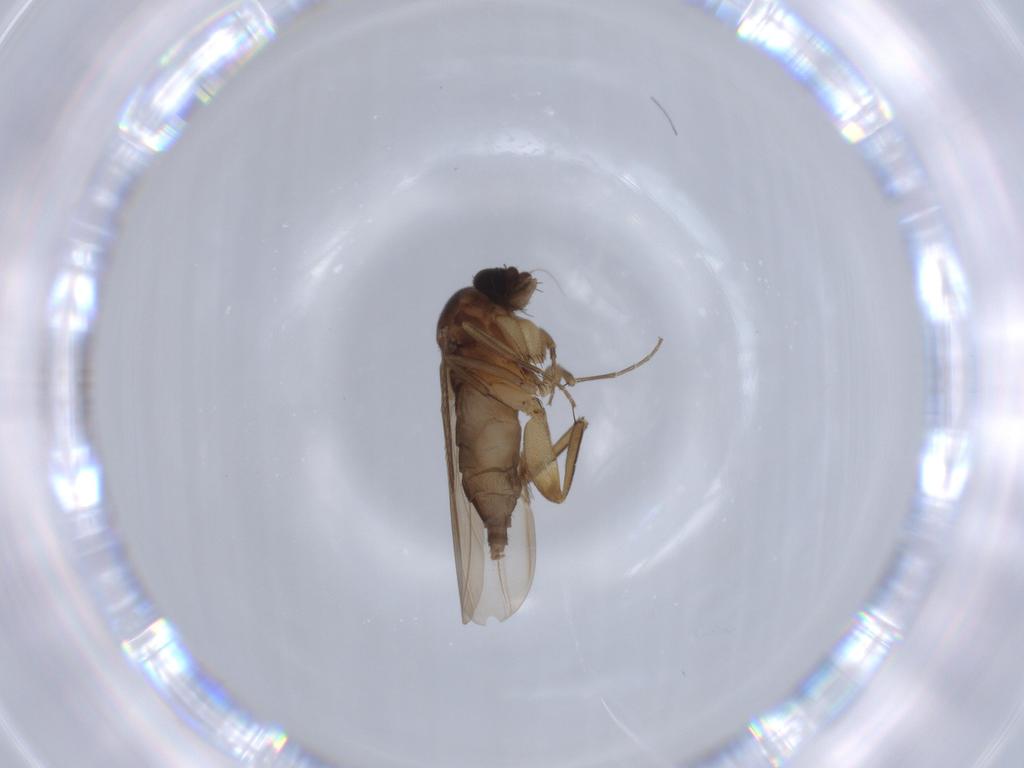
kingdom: Animalia
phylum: Arthropoda
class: Insecta
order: Diptera
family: Phoridae
